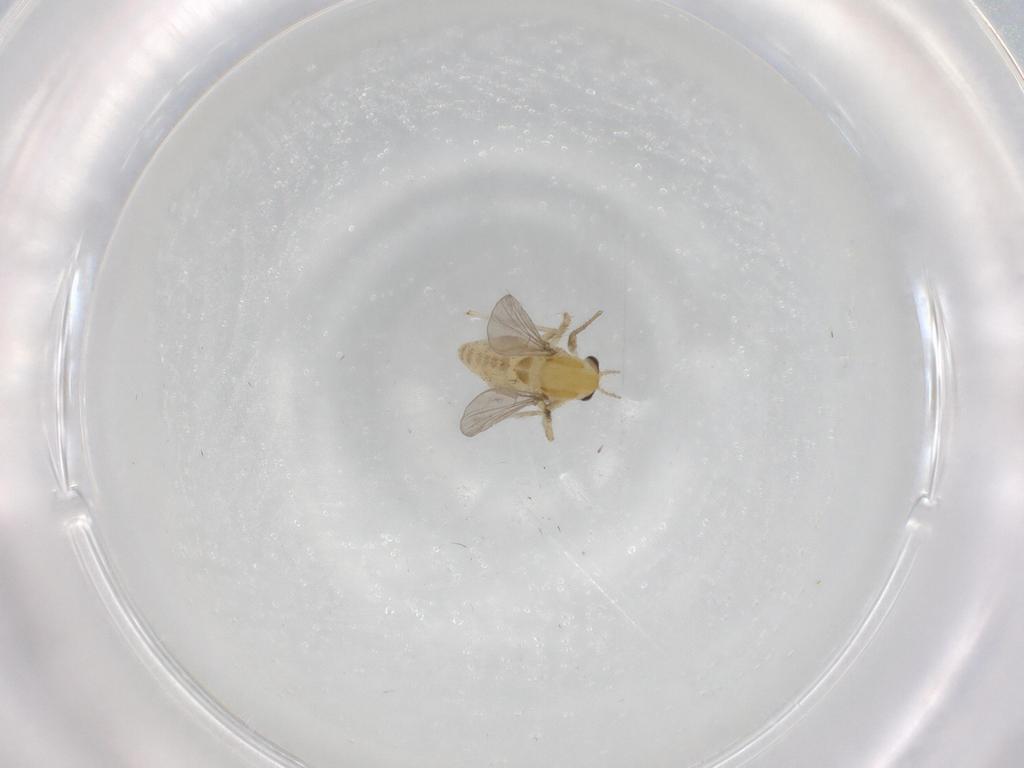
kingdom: Animalia
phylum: Arthropoda
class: Insecta
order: Diptera
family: Chironomidae
